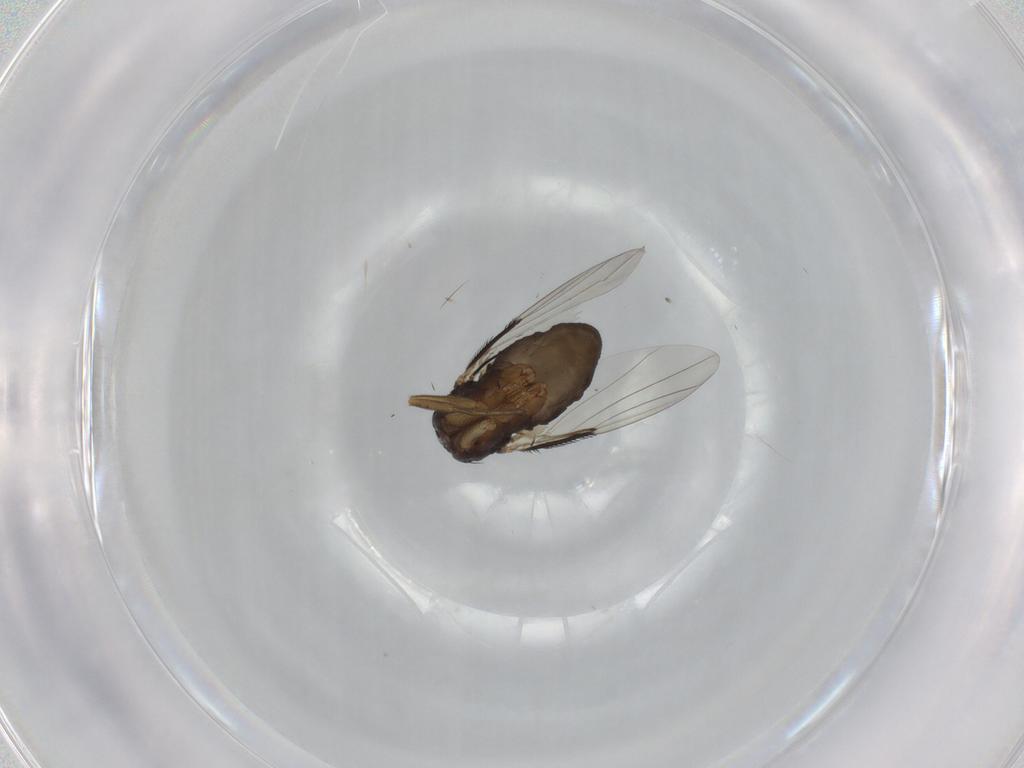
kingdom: Animalia
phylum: Arthropoda
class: Insecta
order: Diptera
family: Phoridae
